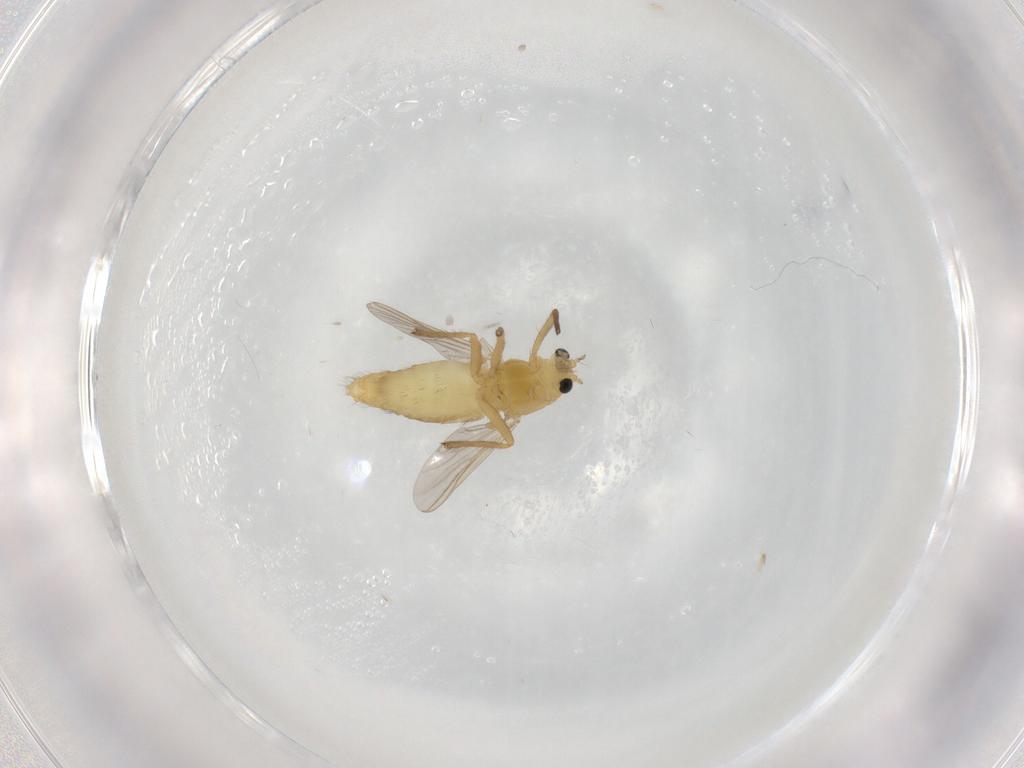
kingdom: Animalia
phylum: Arthropoda
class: Insecta
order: Diptera
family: Chironomidae
